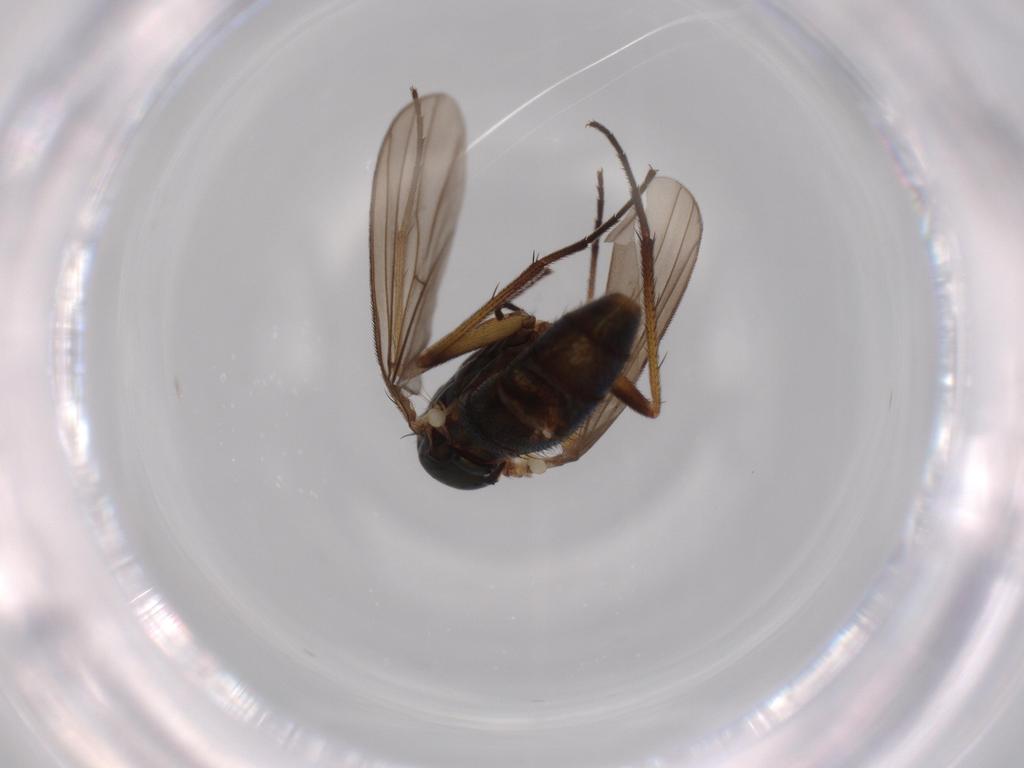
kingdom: Animalia
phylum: Arthropoda
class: Insecta
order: Diptera
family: Dolichopodidae
